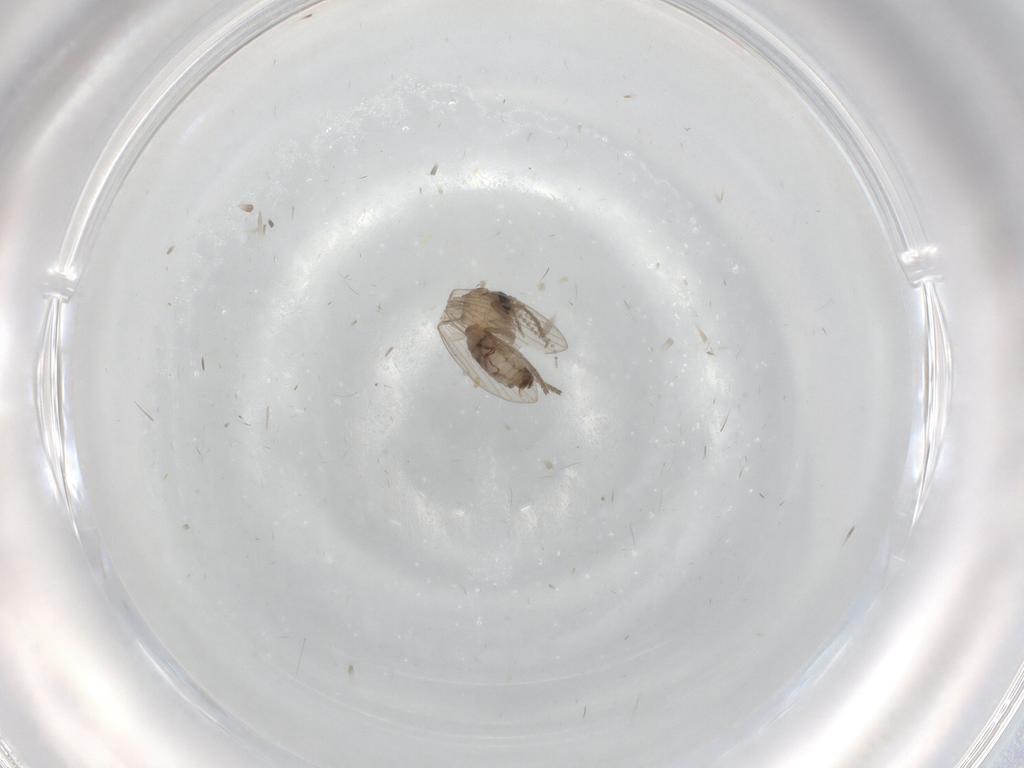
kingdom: Animalia
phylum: Arthropoda
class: Insecta
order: Diptera
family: Psychodidae
